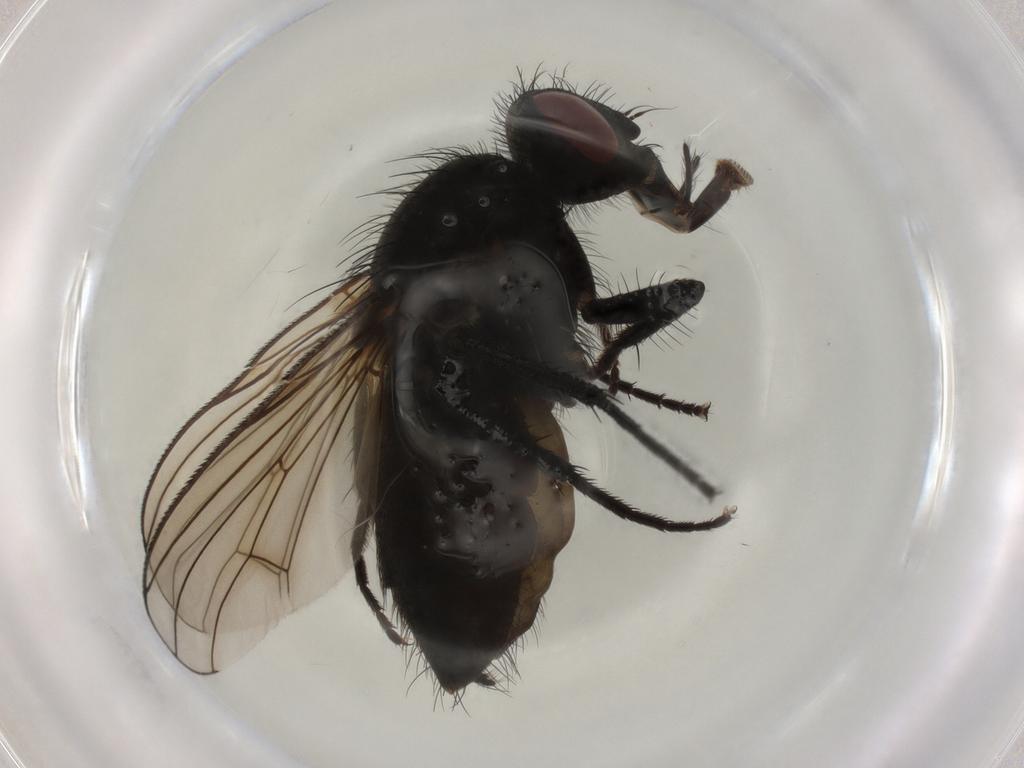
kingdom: Animalia
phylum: Arthropoda
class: Insecta
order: Diptera
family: Muscidae
